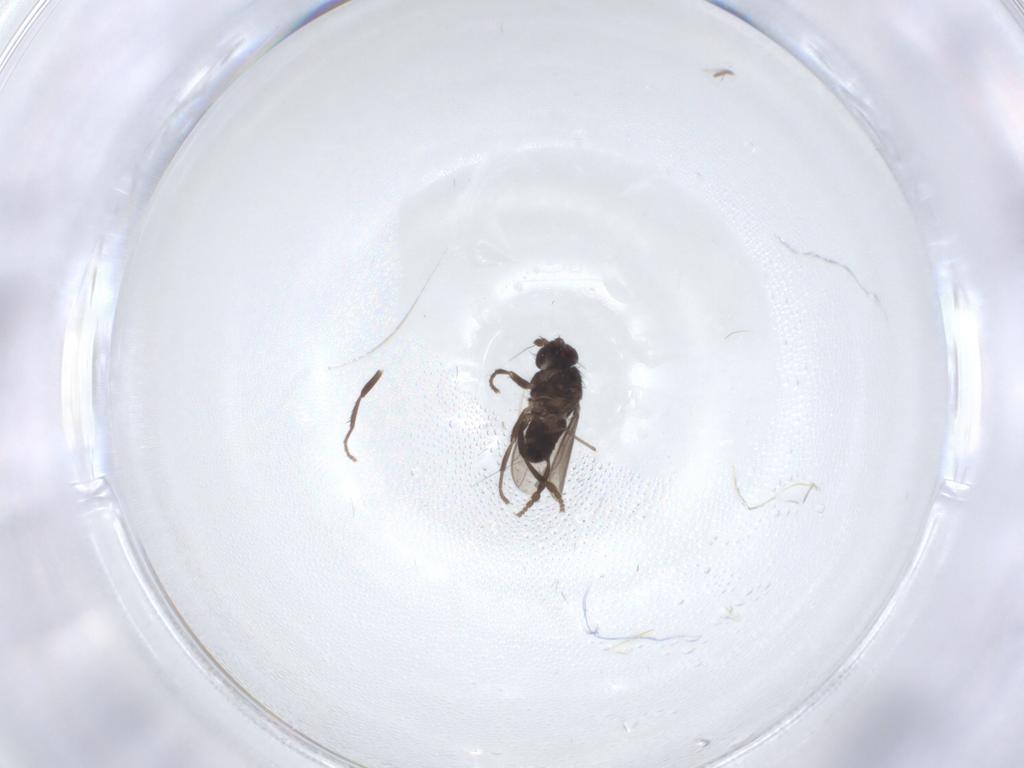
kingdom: Animalia
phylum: Arthropoda
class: Insecta
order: Diptera
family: Sphaeroceridae
